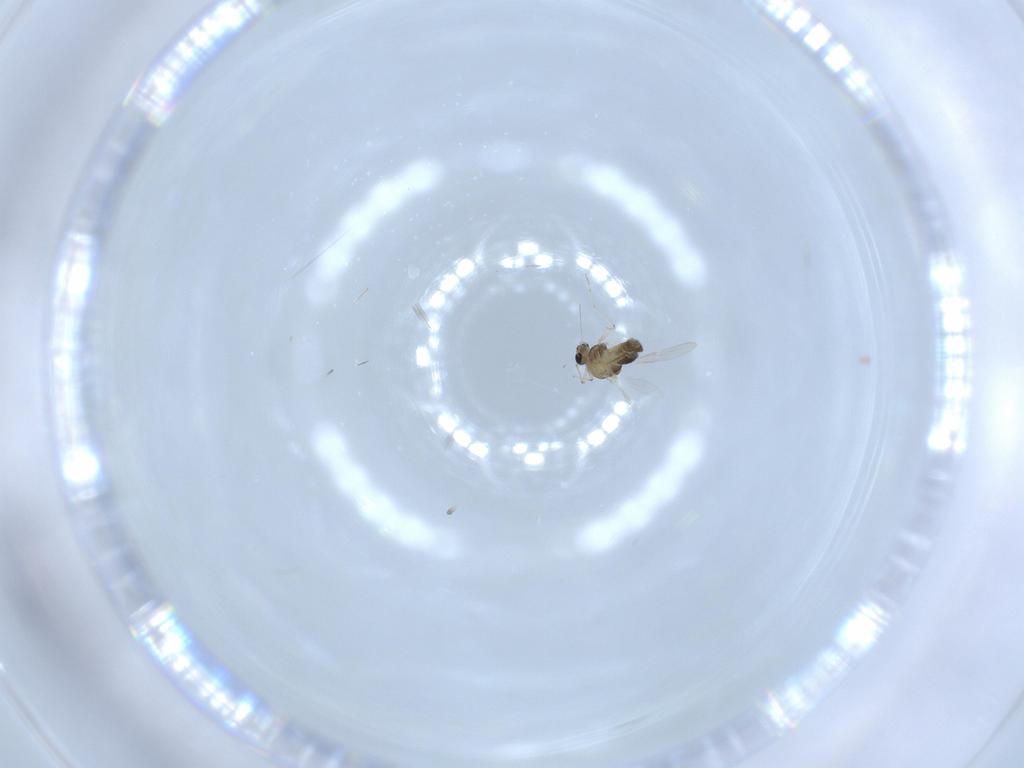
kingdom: Animalia
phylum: Arthropoda
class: Insecta
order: Diptera
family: Chyromyidae
